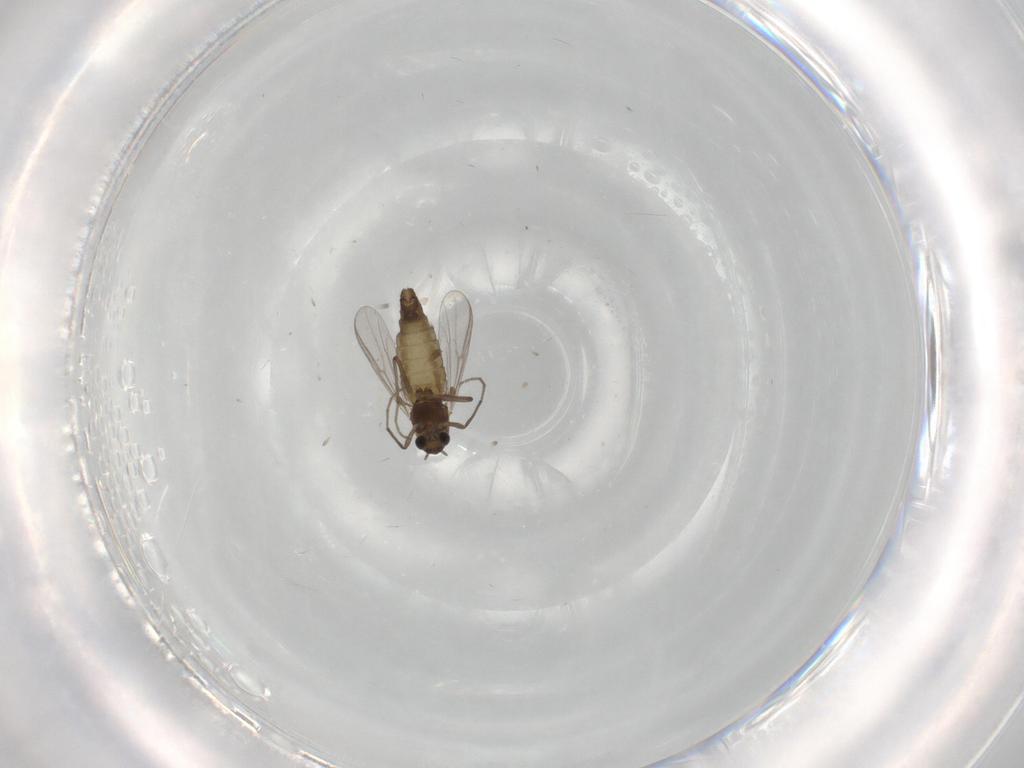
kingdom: Animalia
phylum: Arthropoda
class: Insecta
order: Diptera
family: Chironomidae
